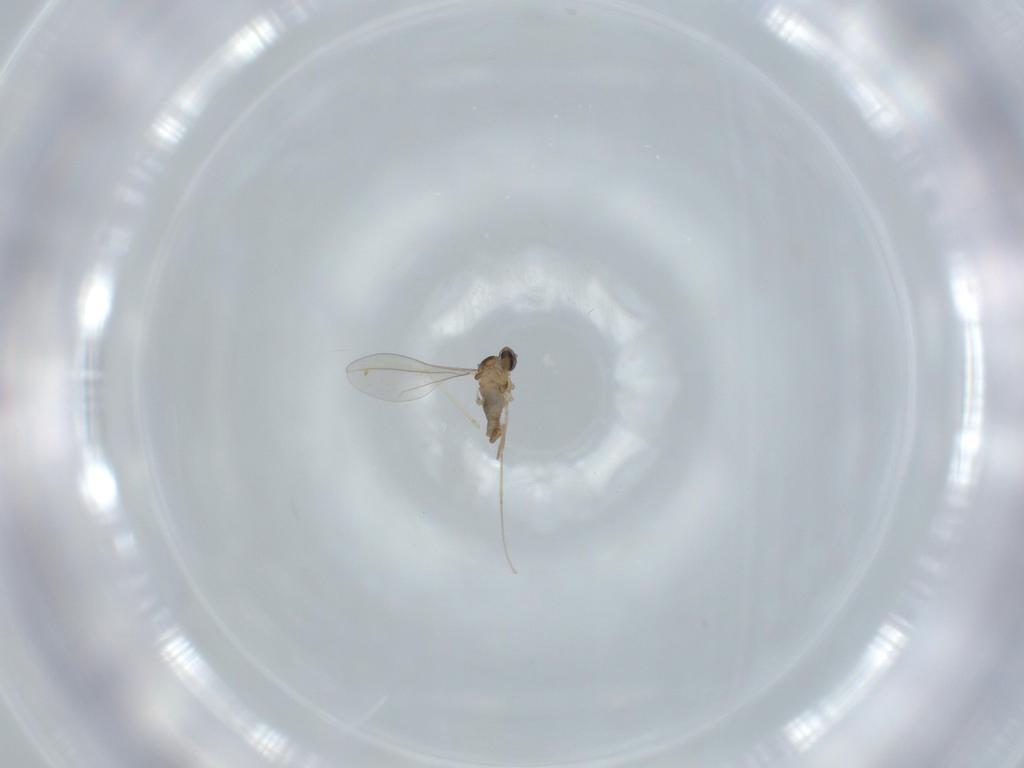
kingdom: Animalia
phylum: Arthropoda
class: Insecta
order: Diptera
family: Cecidomyiidae
